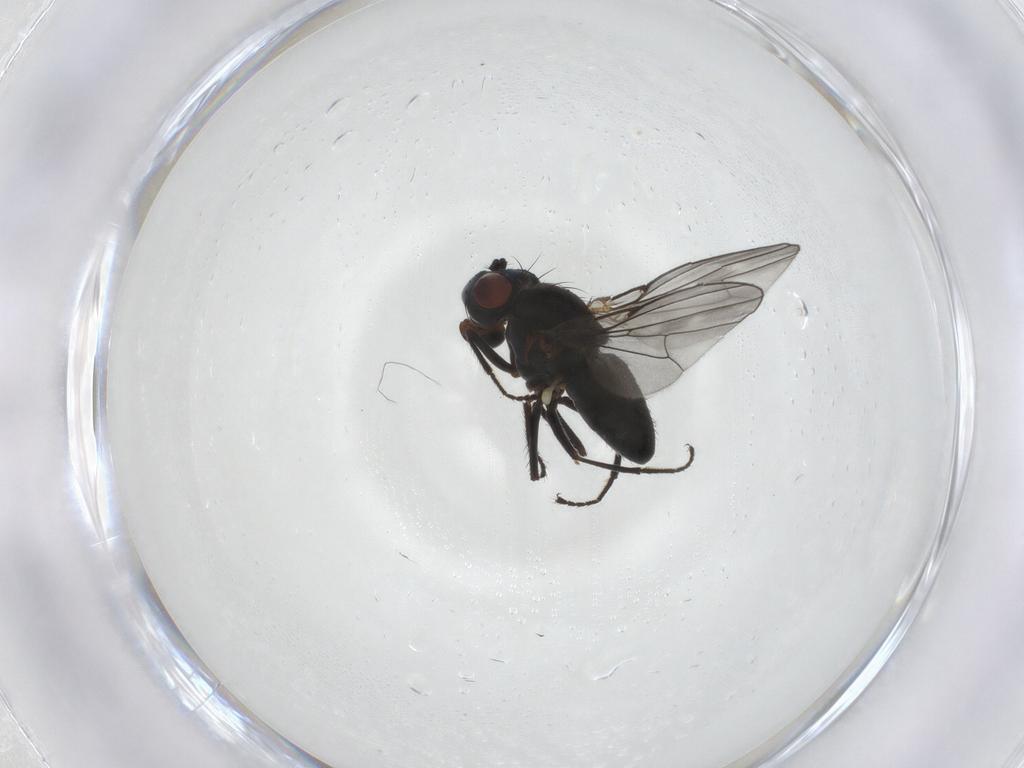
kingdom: Animalia
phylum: Arthropoda
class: Insecta
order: Diptera
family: Ephydridae
